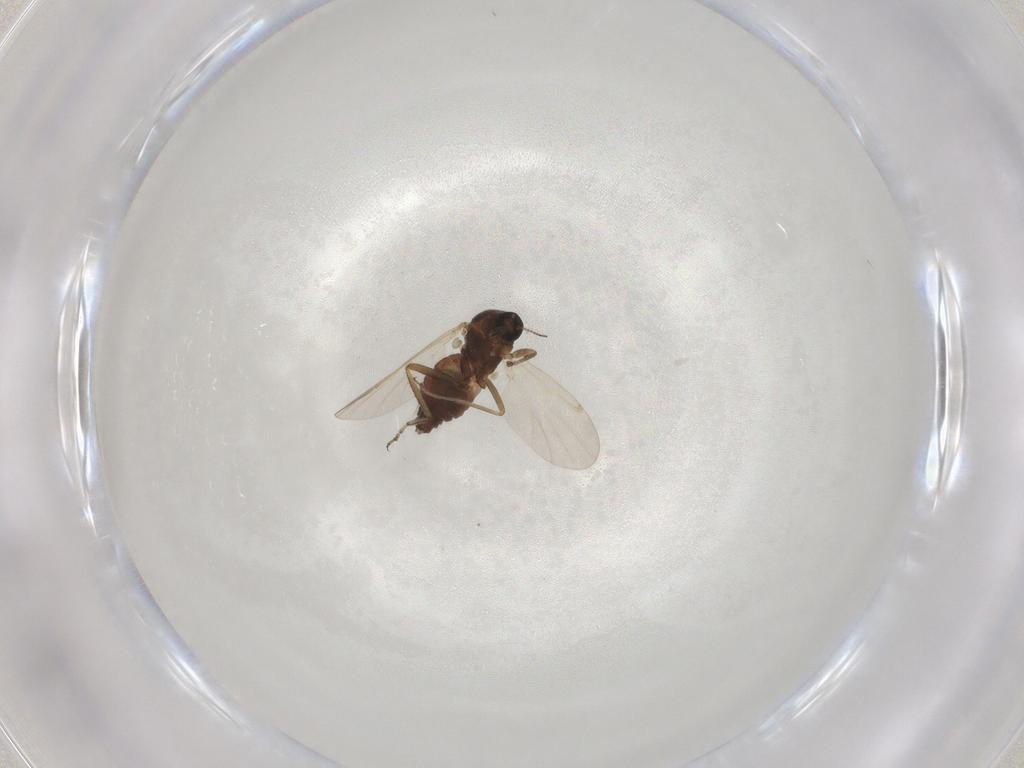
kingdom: Animalia
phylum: Arthropoda
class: Insecta
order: Diptera
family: Ceratopogonidae
